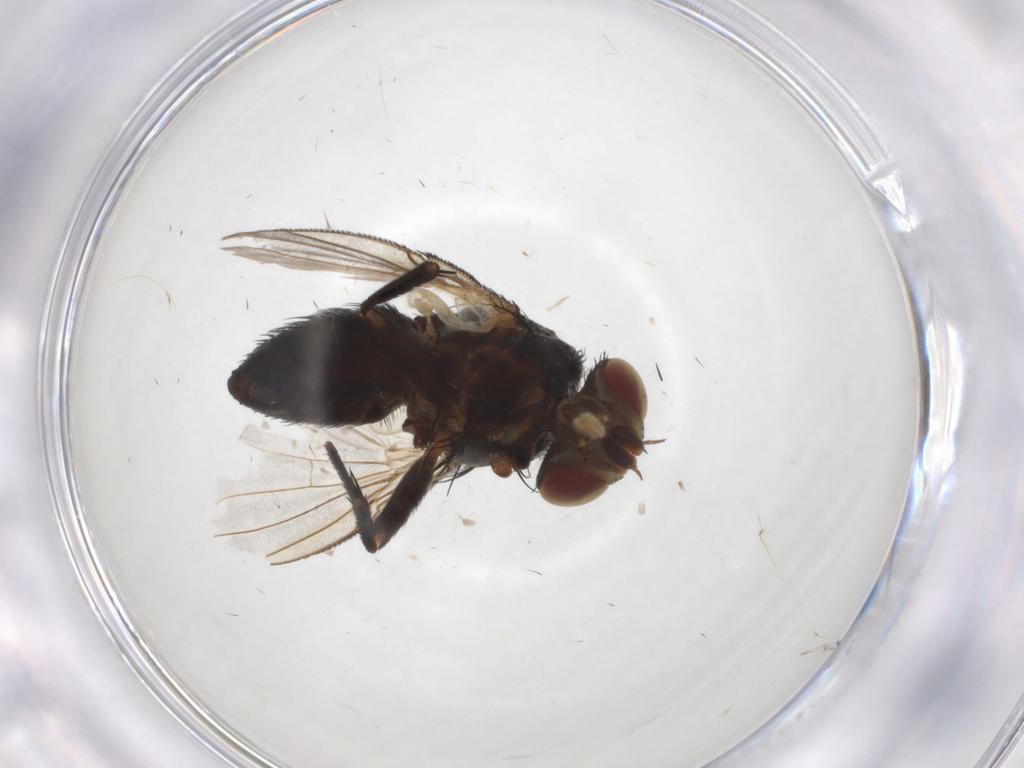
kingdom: Animalia
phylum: Arthropoda
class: Insecta
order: Diptera
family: Tachinidae
